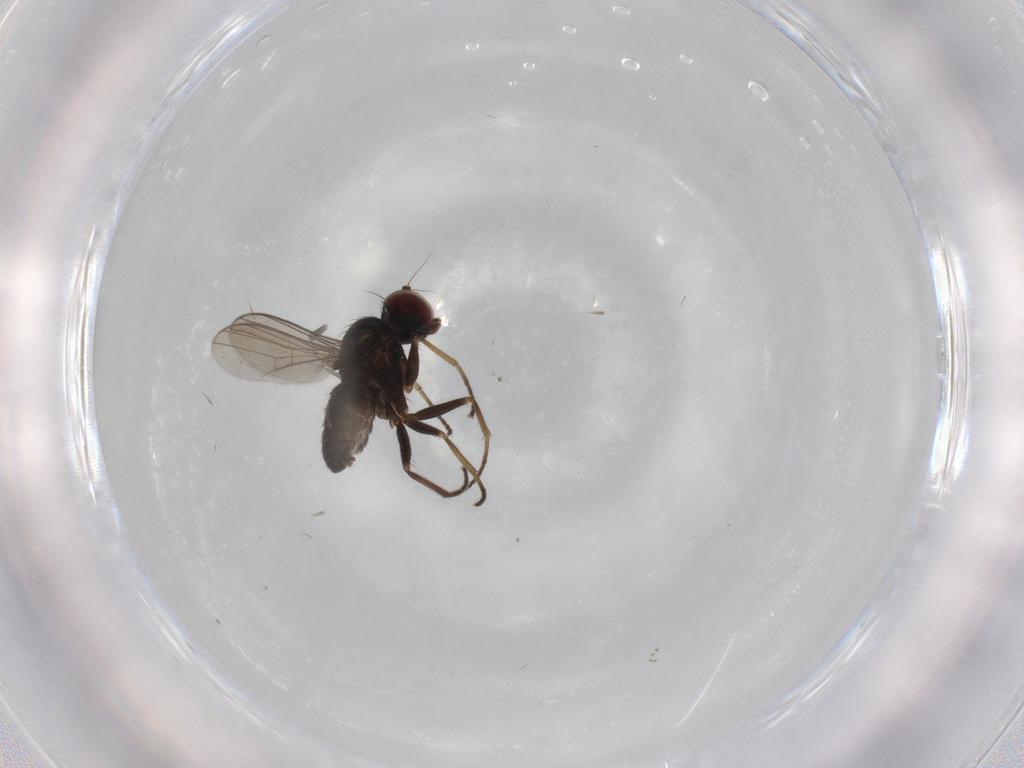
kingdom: Animalia
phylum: Arthropoda
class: Insecta
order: Diptera
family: Dolichopodidae
